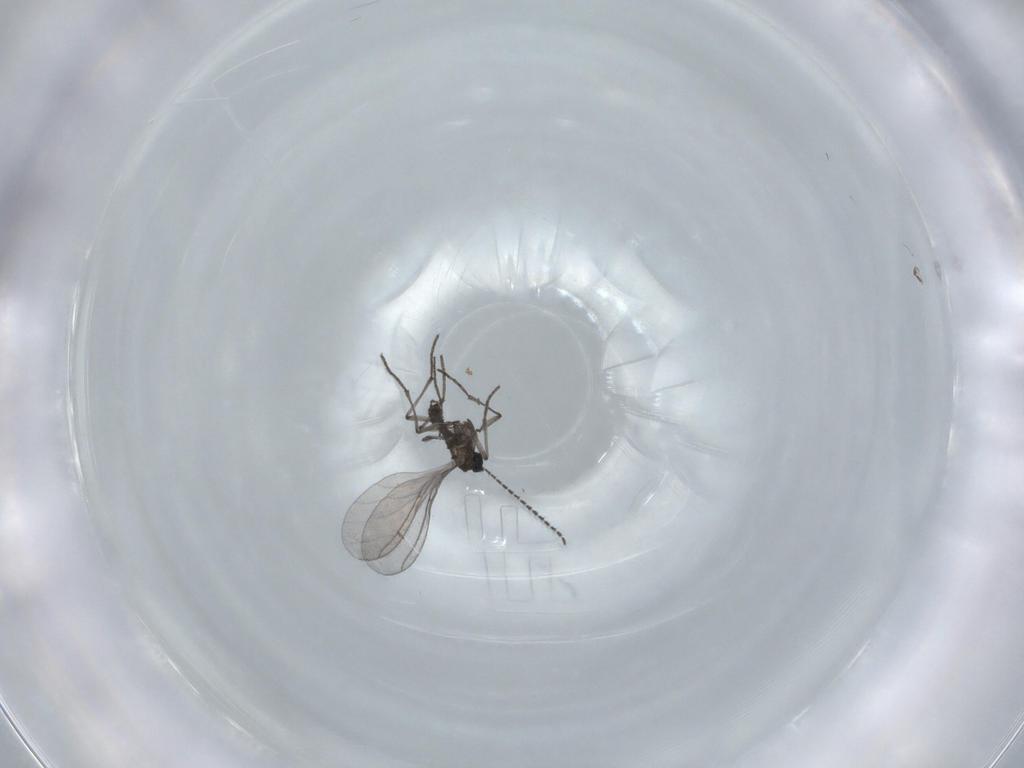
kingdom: Animalia
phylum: Arthropoda
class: Insecta
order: Diptera
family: Sciaridae
